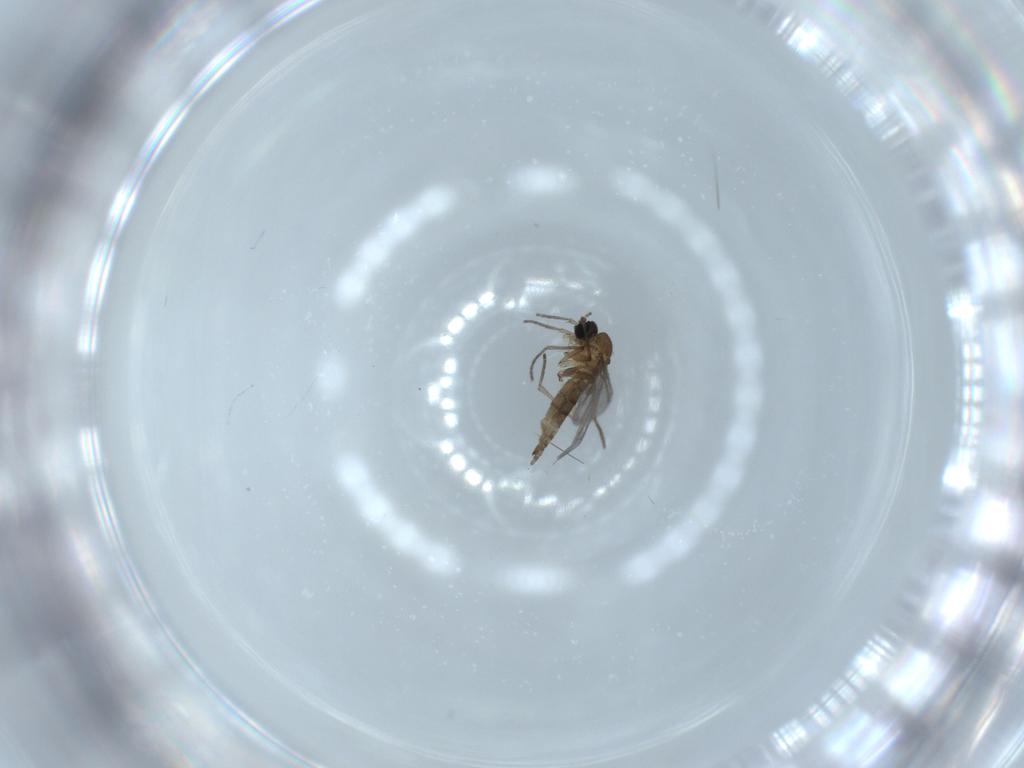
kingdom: Animalia
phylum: Arthropoda
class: Insecta
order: Diptera
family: Sciaridae
